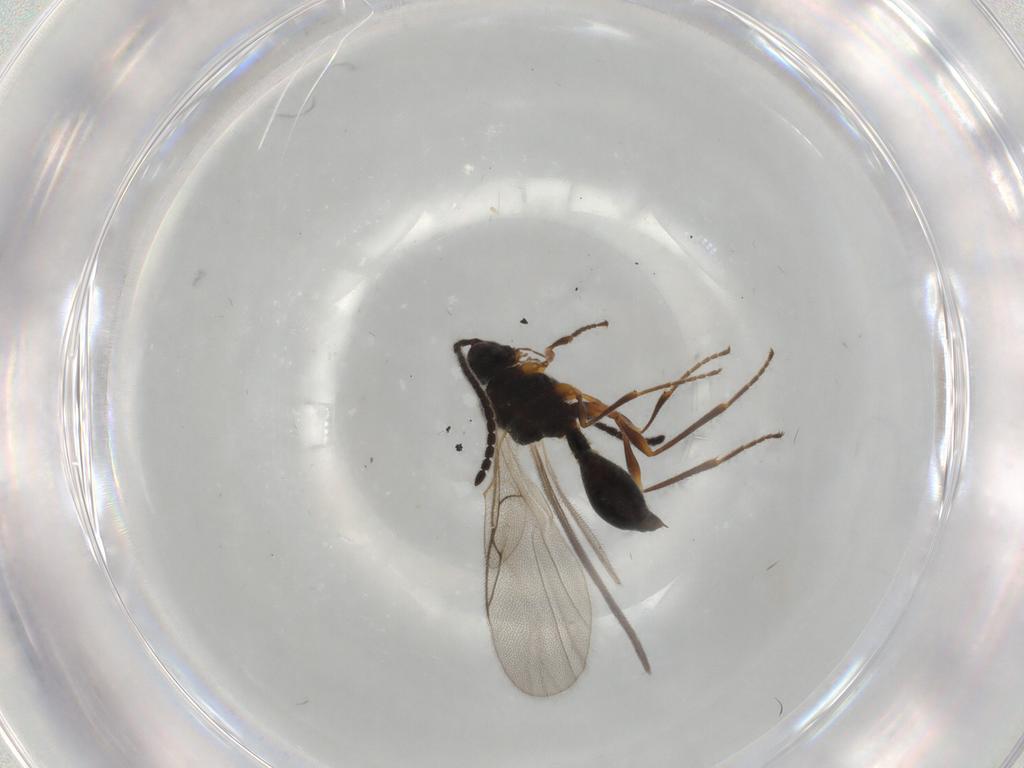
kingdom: Animalia
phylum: Arthropoda
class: Insecta
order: Hymenoptera
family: Diapriidae
